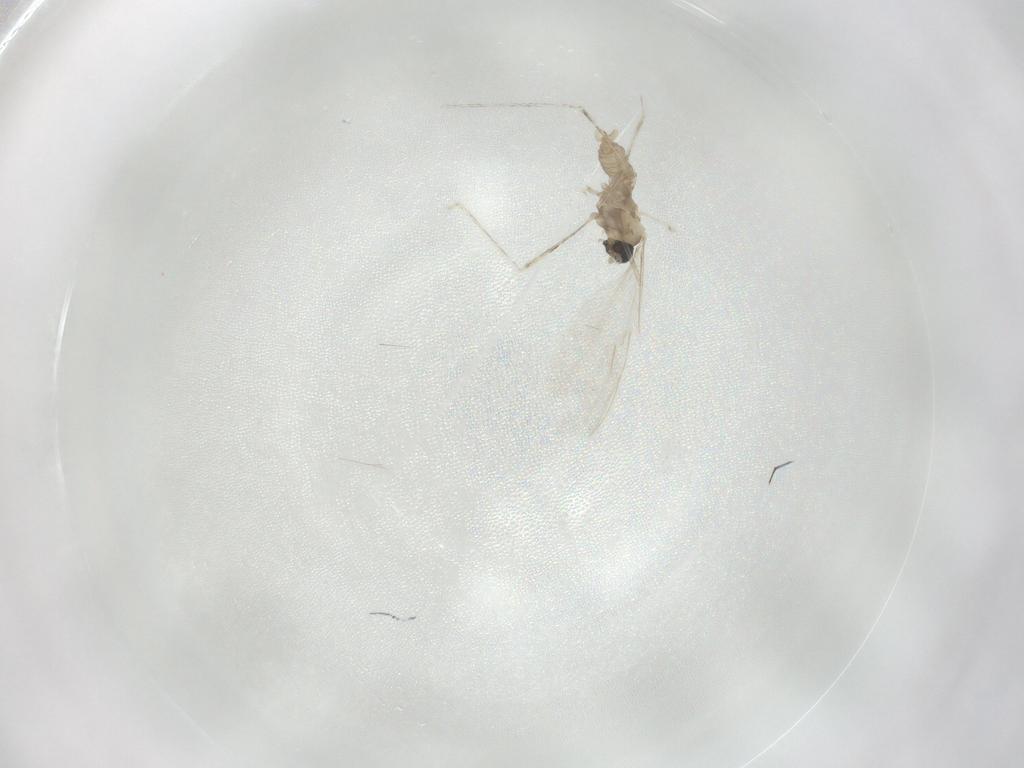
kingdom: Animalia
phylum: Arthropoda
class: Insecta
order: Diptera
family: Cecidomyiidae
